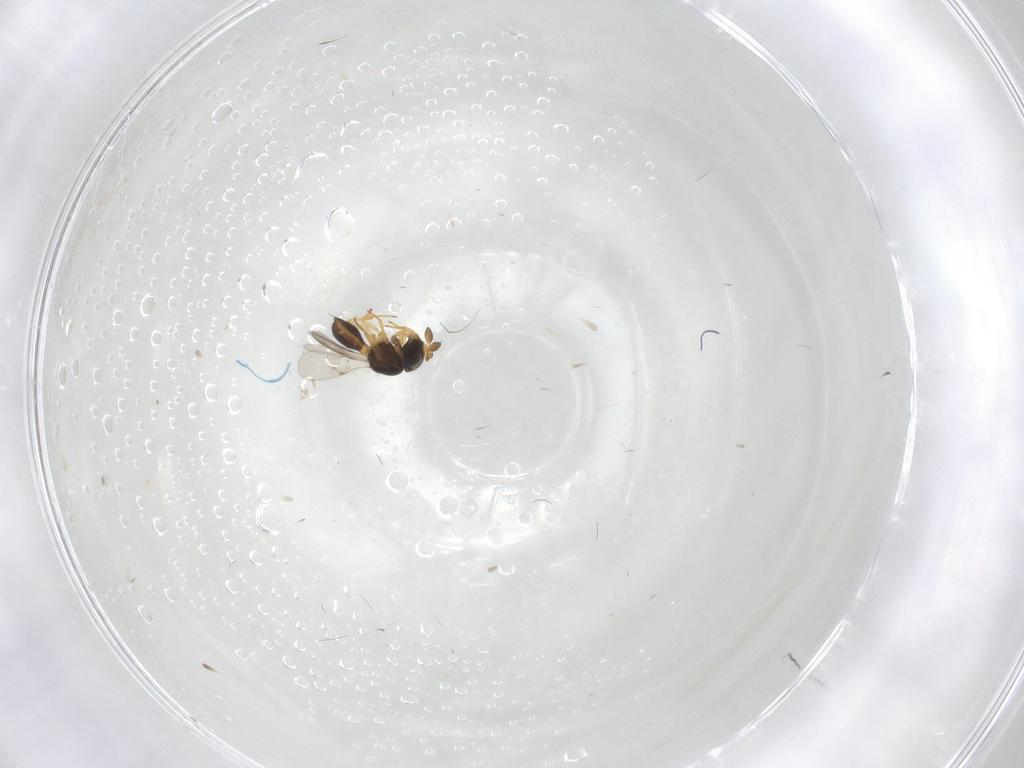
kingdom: Animalia
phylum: Arthropoda
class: Insecta
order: Hymenoptera
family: Scelionidae
